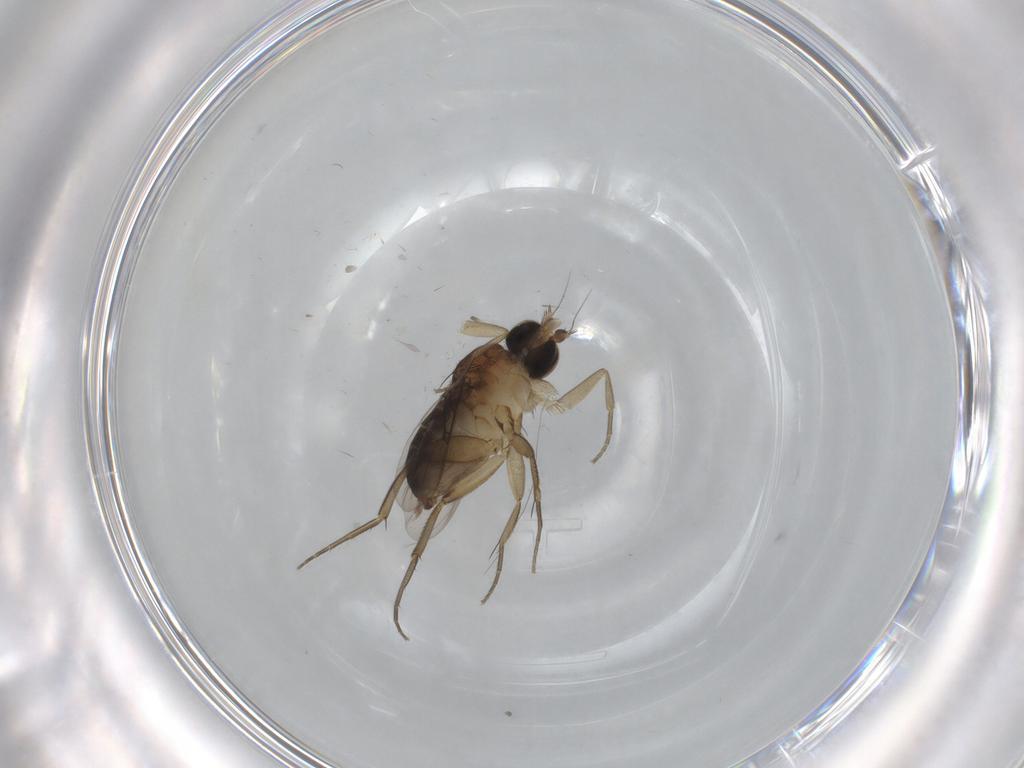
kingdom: Animalia
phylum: Arthropoda
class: Insecta
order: Diptera
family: Phoridae
